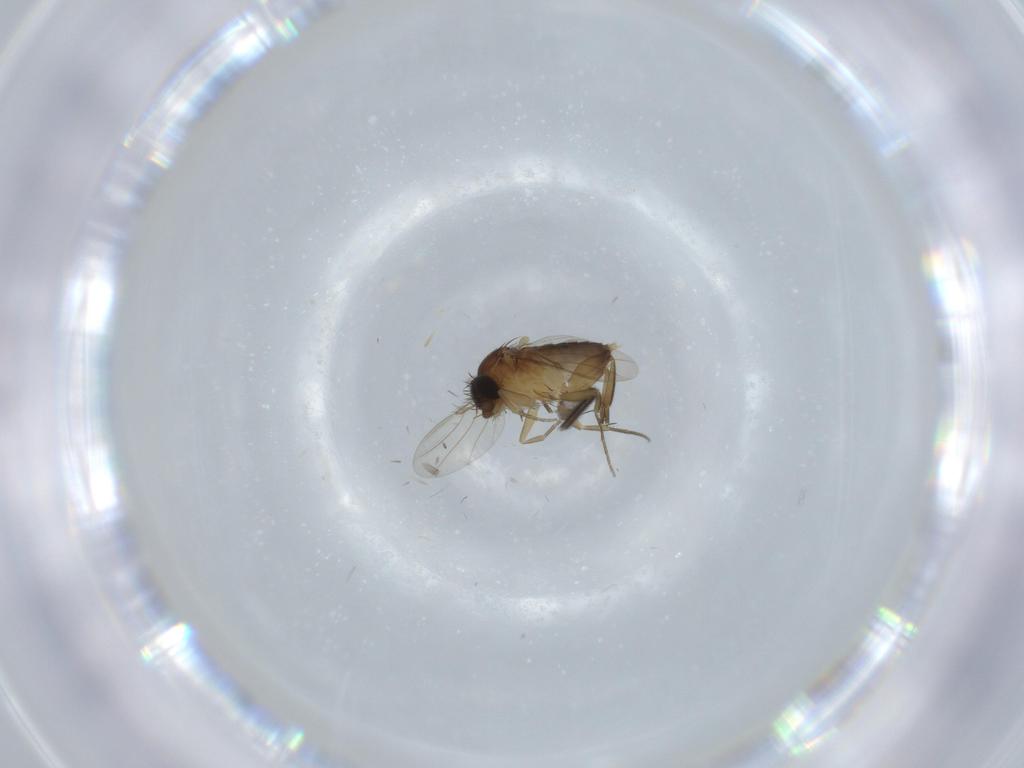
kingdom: Animalia
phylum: Arthropoda
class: Insecta
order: Diptera
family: Phoridae
